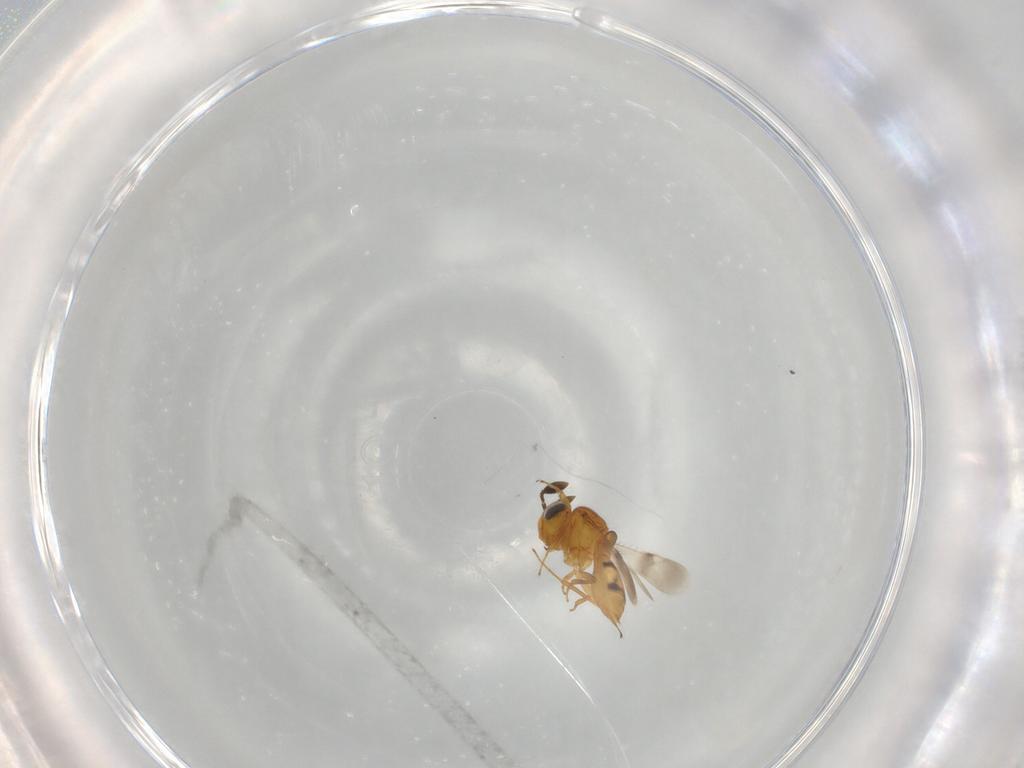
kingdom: Animalia
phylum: Arthropoda
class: Insecta
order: Hymenoptera
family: Scelionidae
